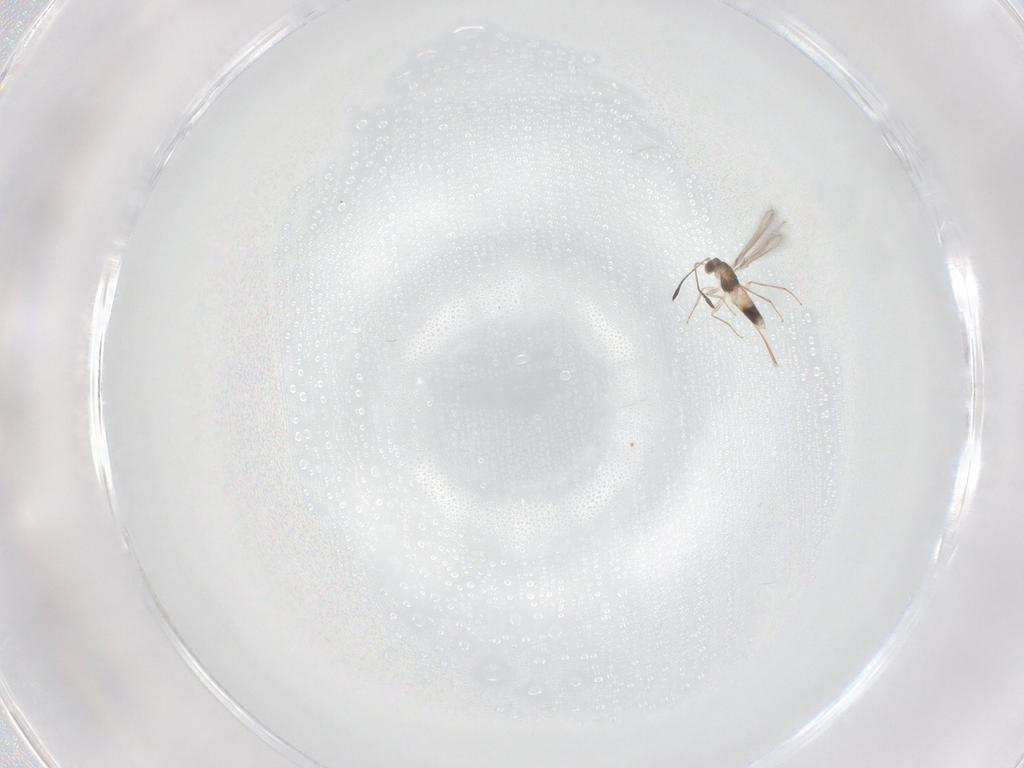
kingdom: Animalia
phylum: Arthropoda
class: Insecta
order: Hymenoptera
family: Mymaridae
